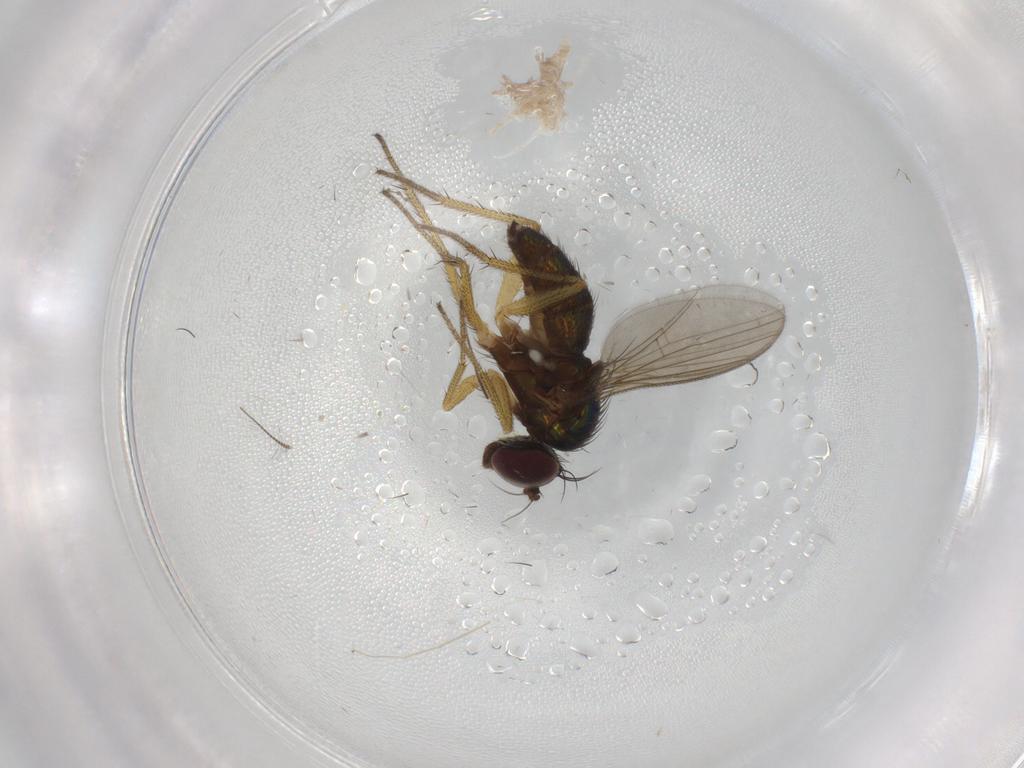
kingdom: Animalia
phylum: Arthropoda
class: Insecta
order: Diptera
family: Dolichopodidae
